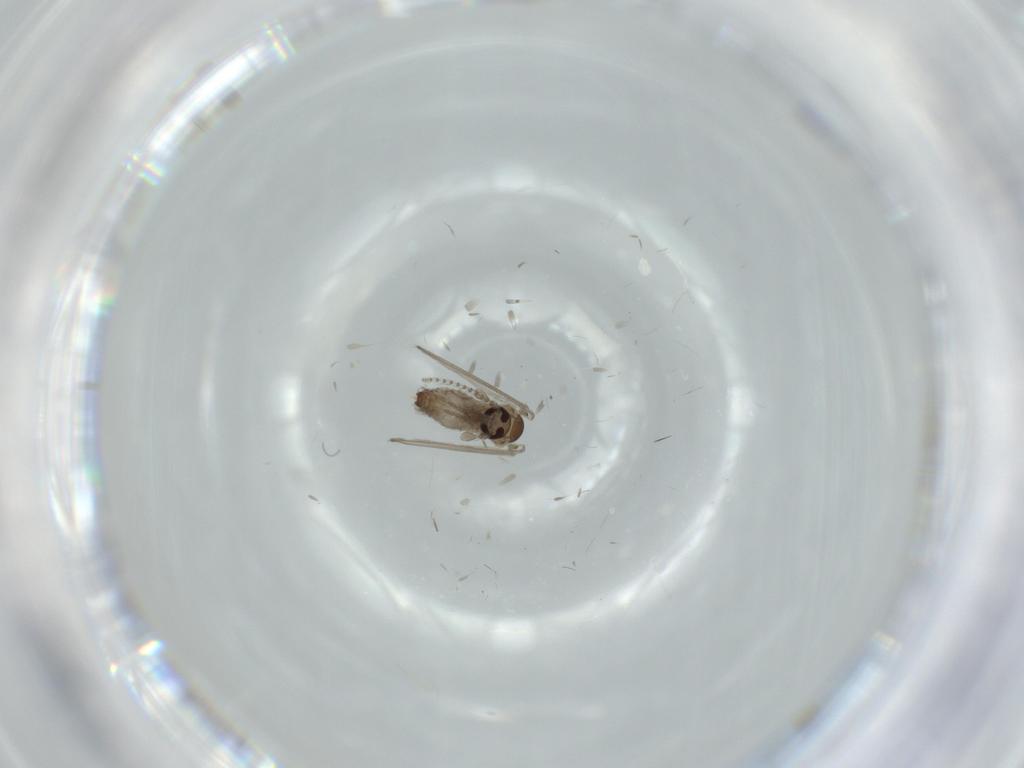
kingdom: Animalia
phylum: Arthropoda
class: Insecta
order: Diptera
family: Psychodidae
